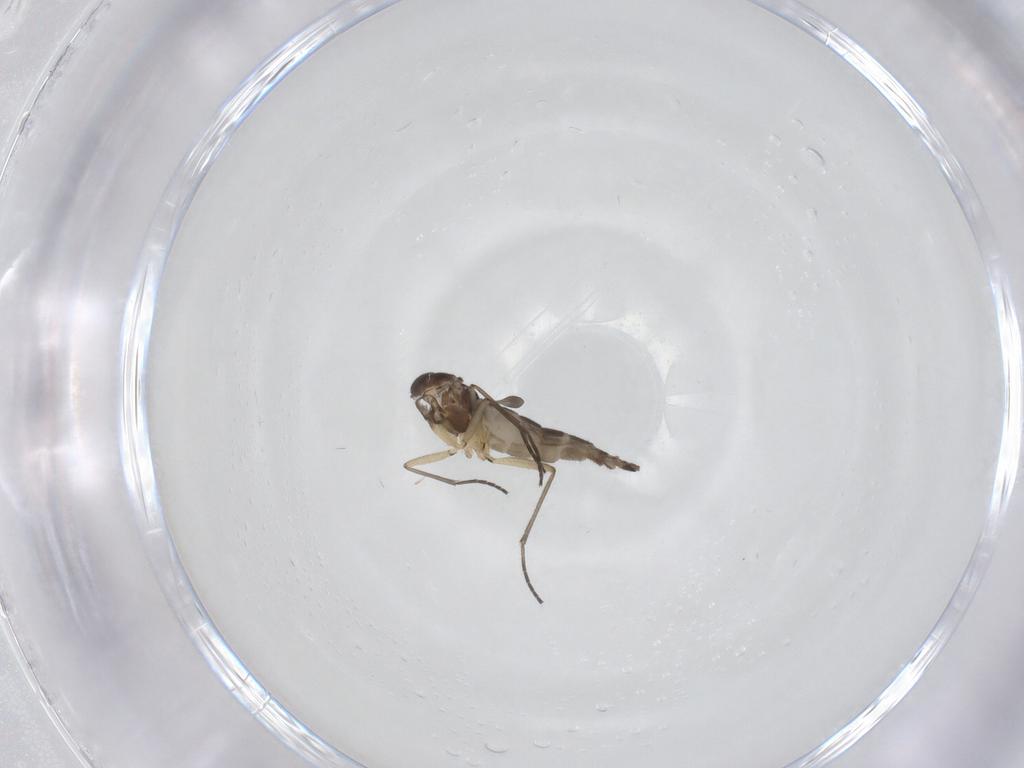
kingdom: Animalia
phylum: Arthropoda
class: Insecta
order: Diptera
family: Sciaridae
